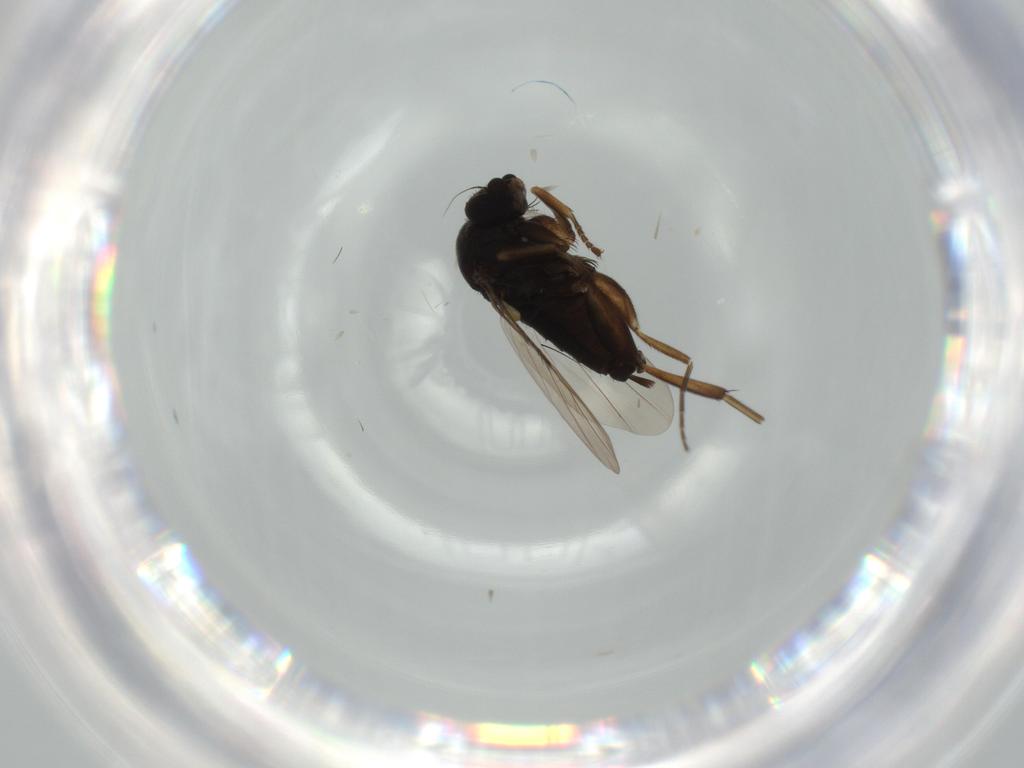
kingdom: Animalia
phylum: Arthropoda
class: Insecta
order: Diptera
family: Phoridae
